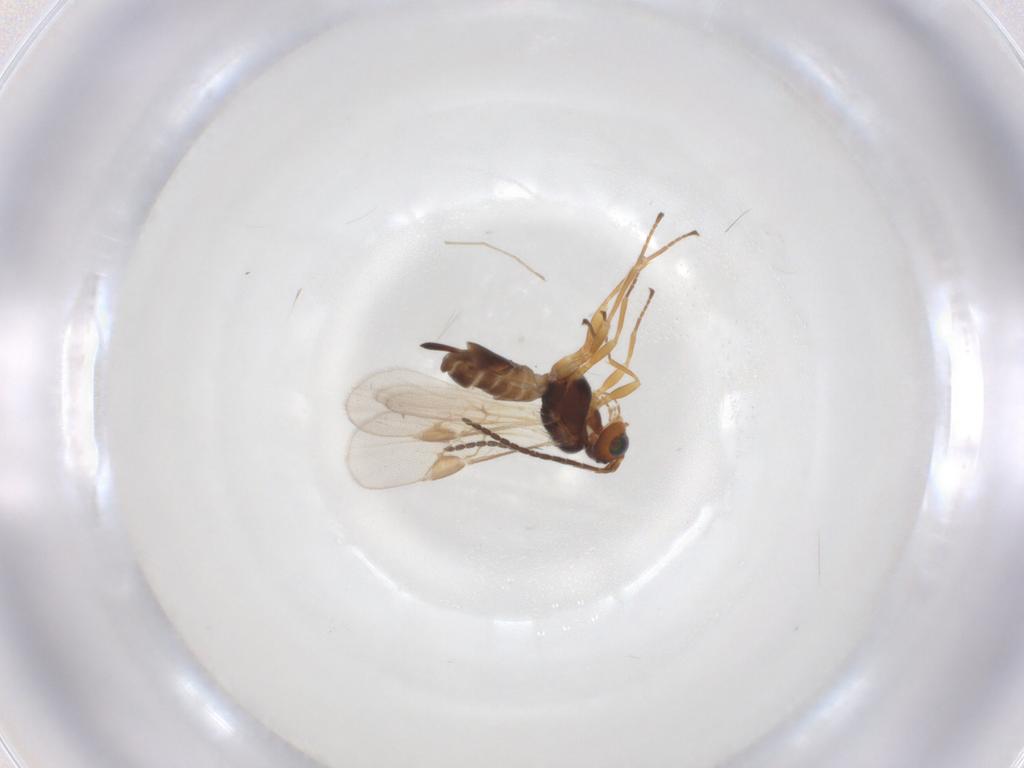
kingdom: Animalia
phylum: Arthropoda
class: Insecta
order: Hymenoptera
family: Braconidae
